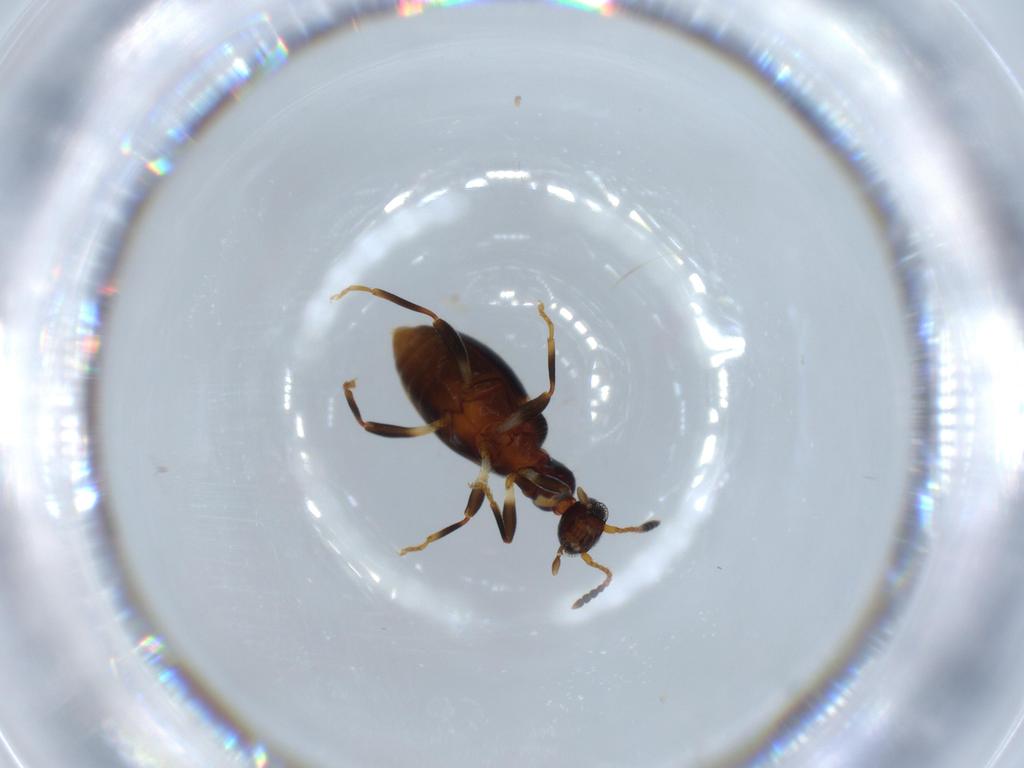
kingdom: Animalia
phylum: Arthropoda
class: Insecta
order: Coleoptera
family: Anthicidae
